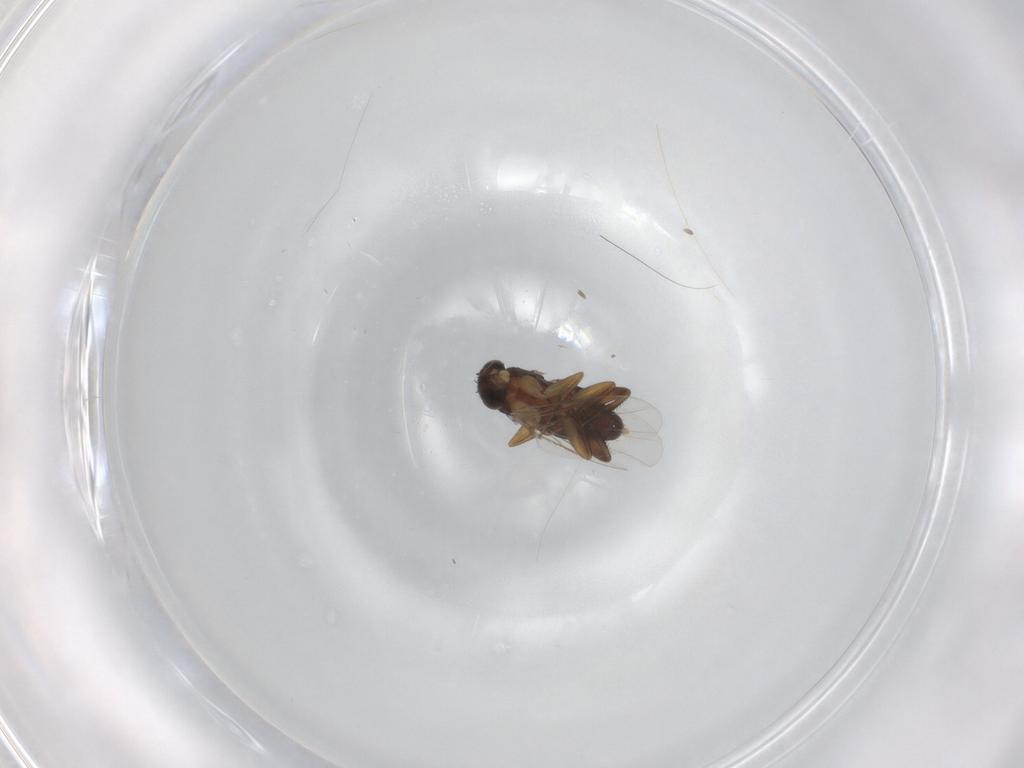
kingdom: Animalia
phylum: Arthropoda
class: Insecta
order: Diptera
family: Phoridae
